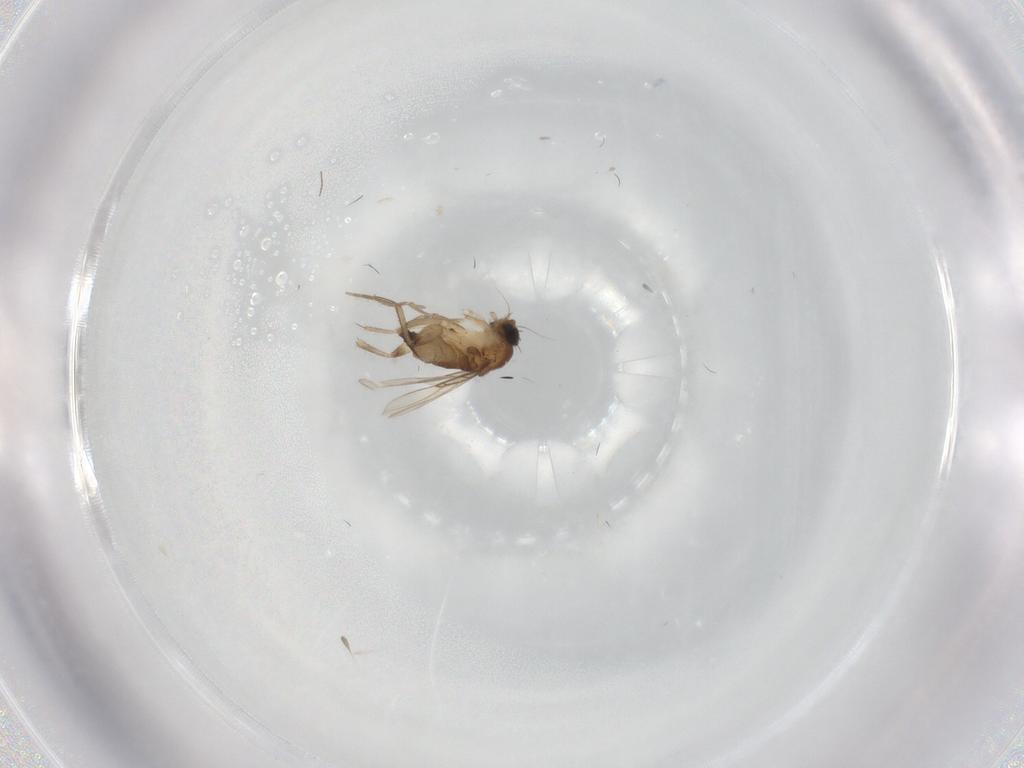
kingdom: Animalia
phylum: Arthropoda
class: Insecta
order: Diptera
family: Phoridae
